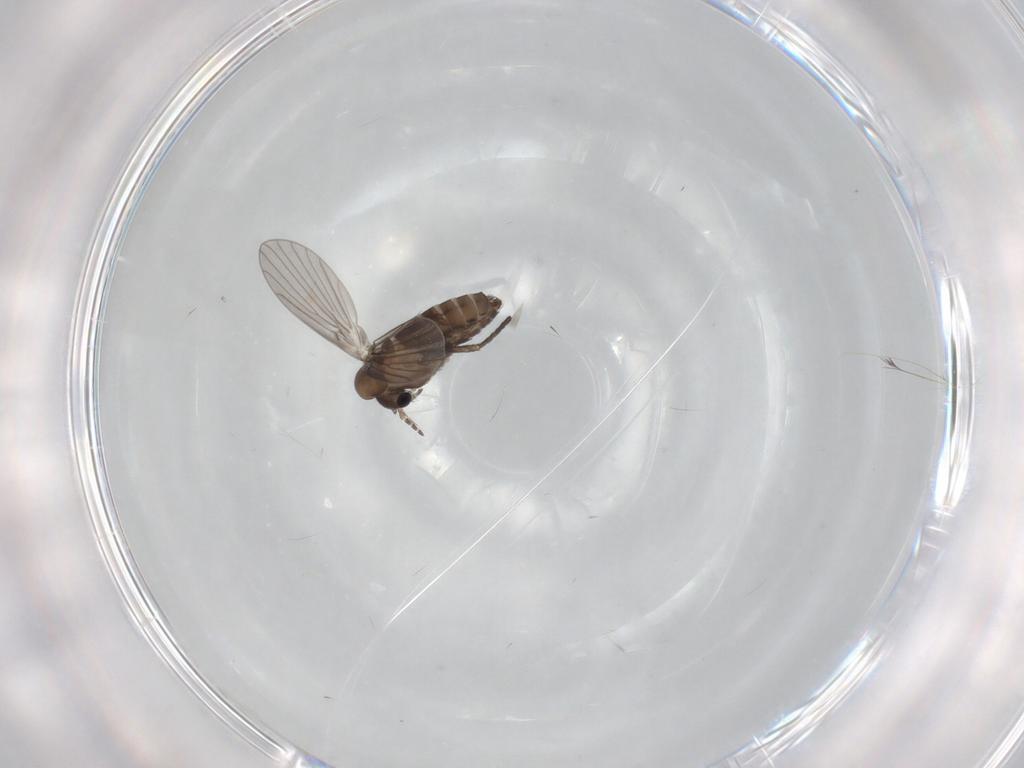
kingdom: Animalia
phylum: Arthropoda
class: Insecta
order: Diptera
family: Psychodidae
